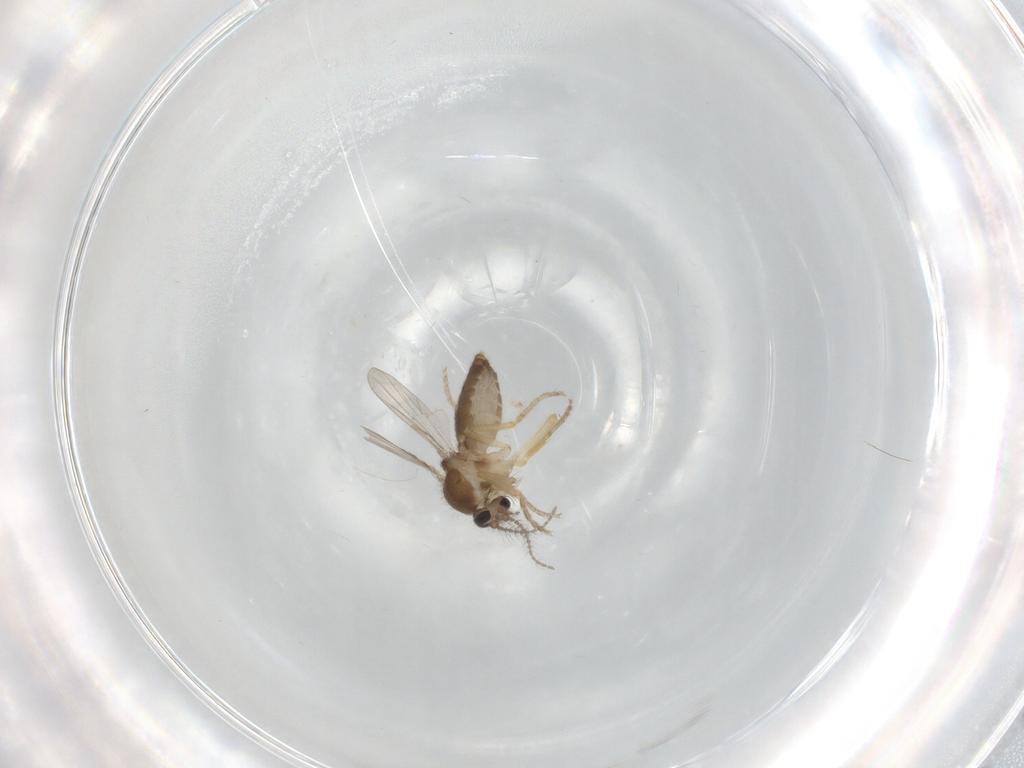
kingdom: Animalia
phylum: Arthropoda
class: Insecta
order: Diptera
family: Ceratopogonidae
